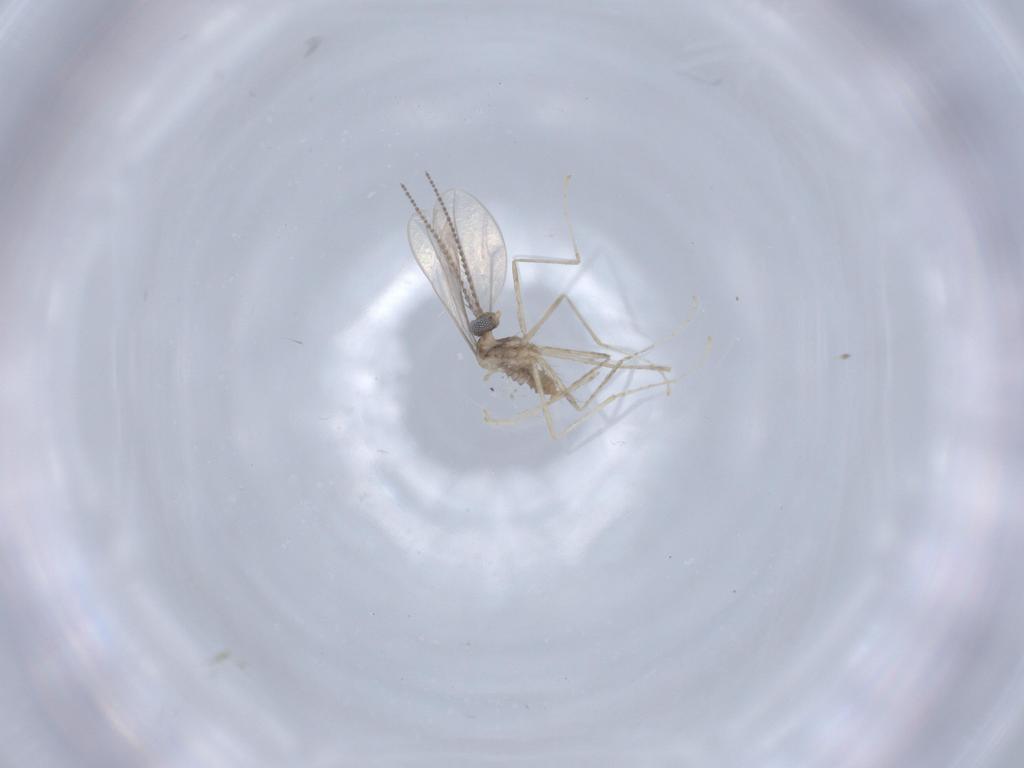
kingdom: Animalia
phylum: Arthropoda
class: Insecta
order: Diptera
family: Cecidomyiidae
